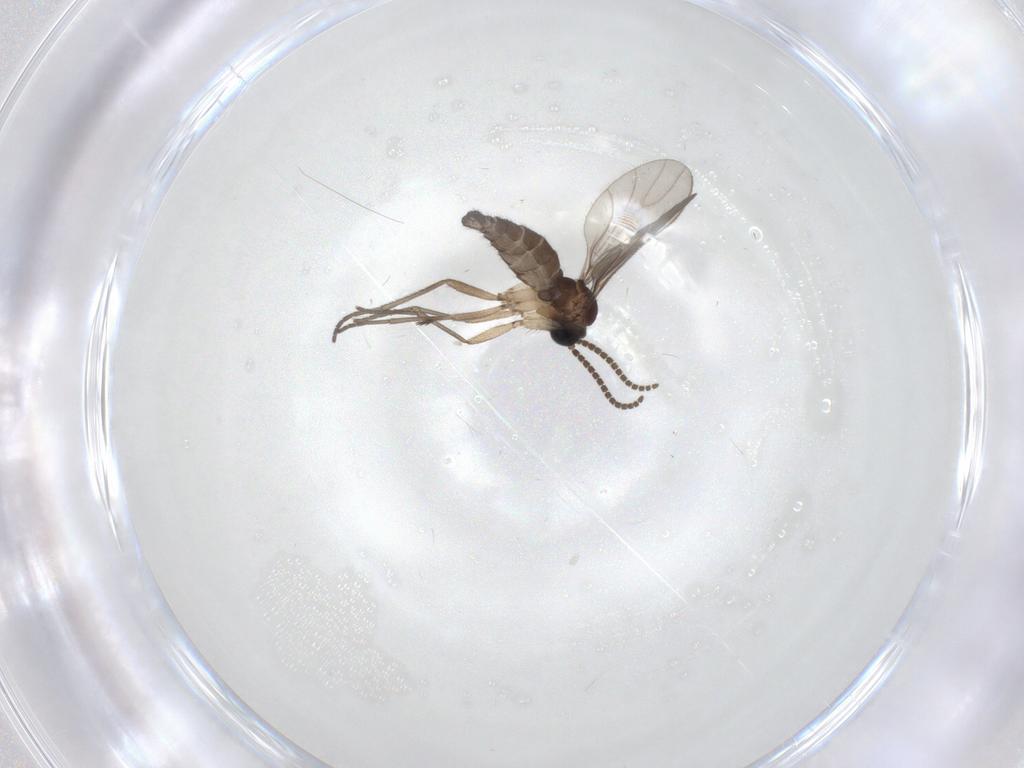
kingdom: Animalia
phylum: Arthropoda
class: Insecta
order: Diptera
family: Sciaridae
